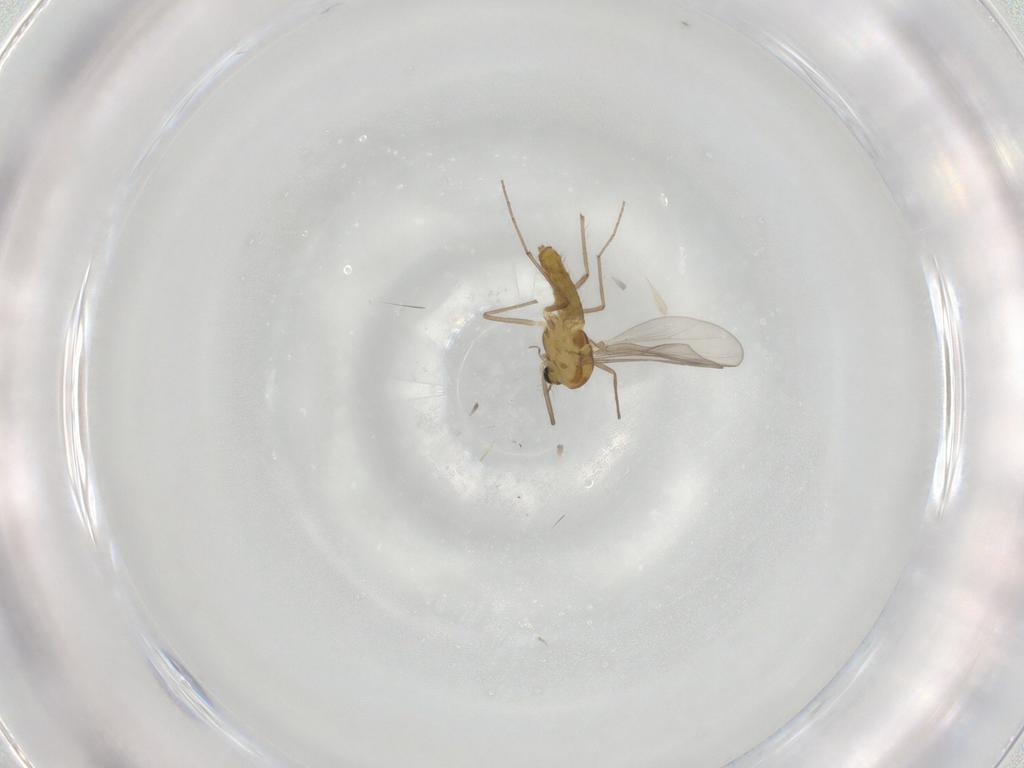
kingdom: Animalia
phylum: Arthropoda
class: Insecta
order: Diptera
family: Chironomidae
